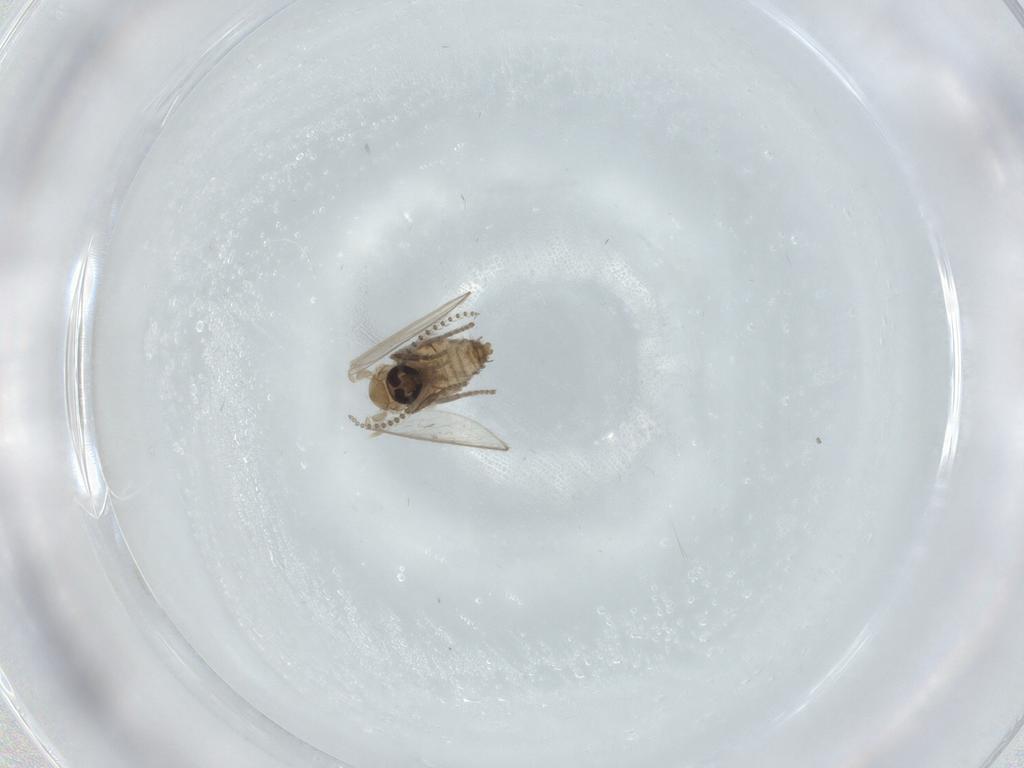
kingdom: Animalia
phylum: Arthropoda
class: Insecta
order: Diptera
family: Psychodidae
